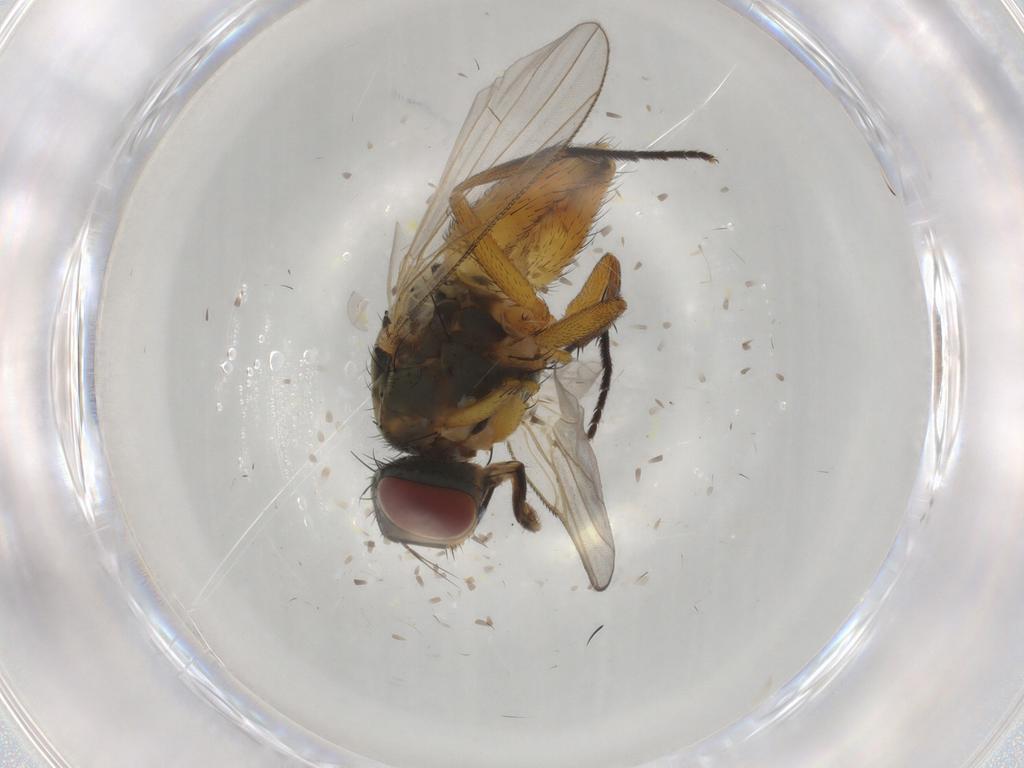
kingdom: Animalia
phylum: Arthropoda
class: Insecta
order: Diptera
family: Muscidae
